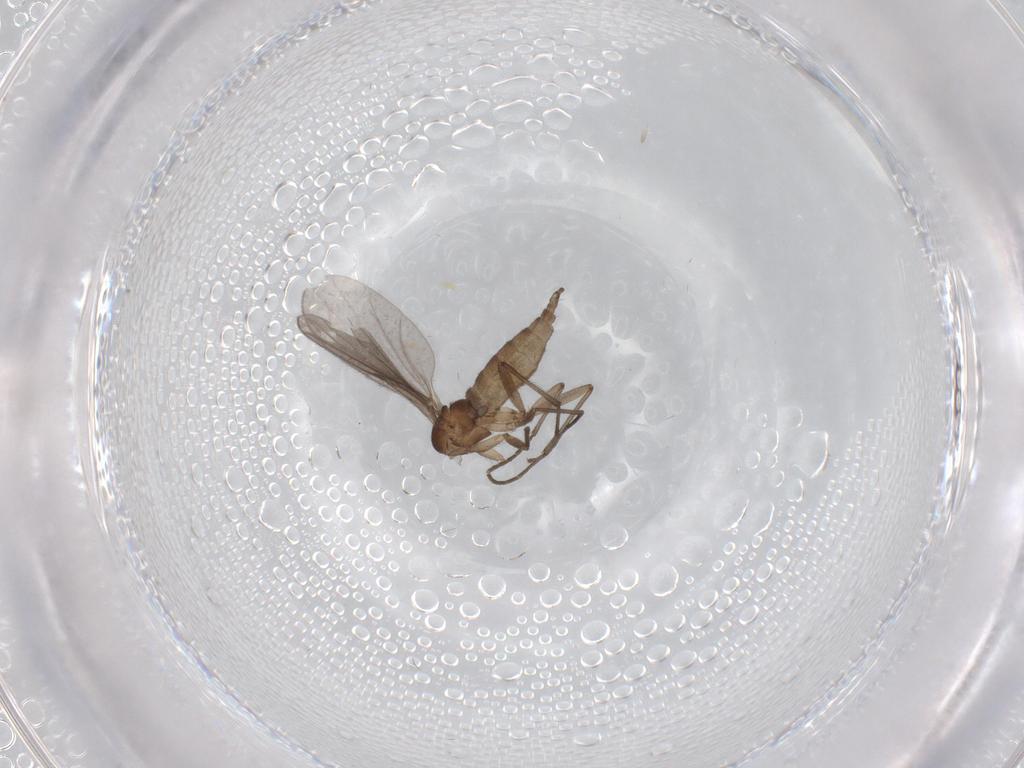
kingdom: Animalia
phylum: Arthropoda
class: Insecta
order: Diptera
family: Sciaridae
